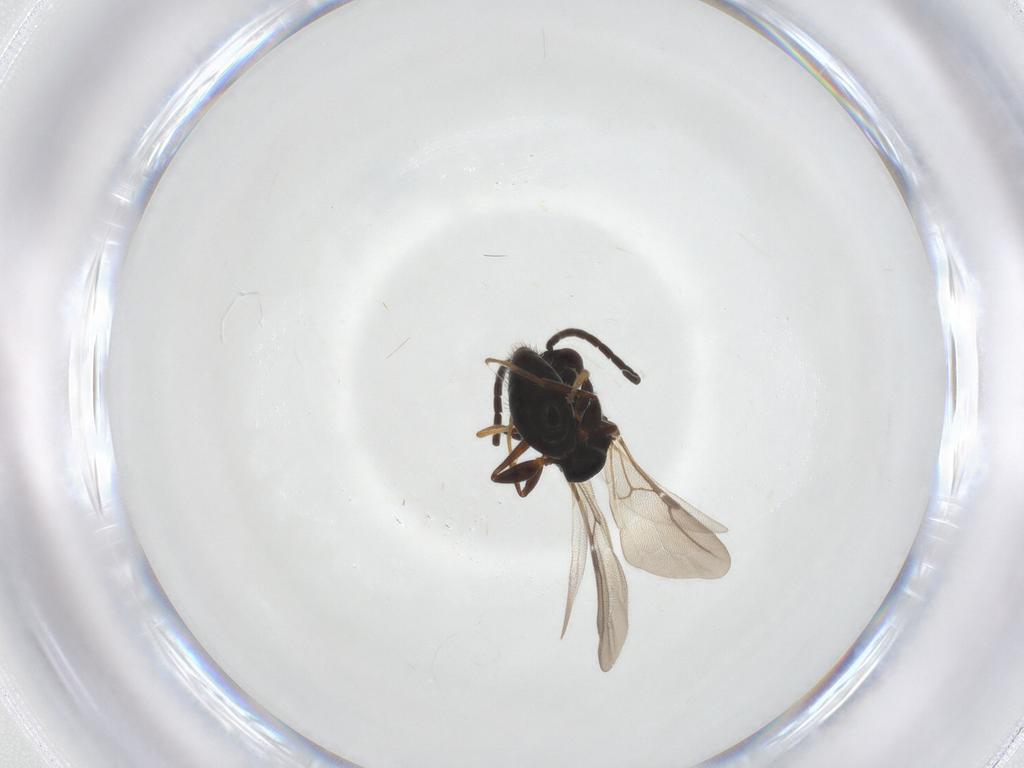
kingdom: Animalia
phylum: Arthropoda
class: Insecta
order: Hymenoptera
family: Bethylidae
